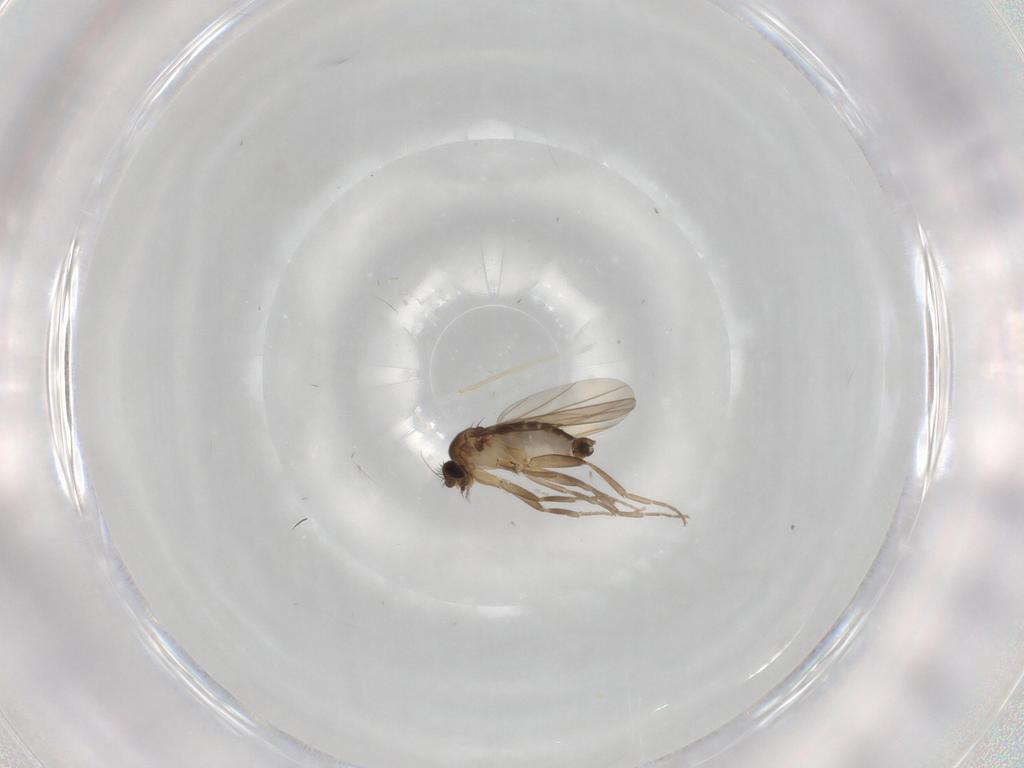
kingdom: Animalia
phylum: Arthropoda
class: Insecta
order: Diptera
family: Phoridae
